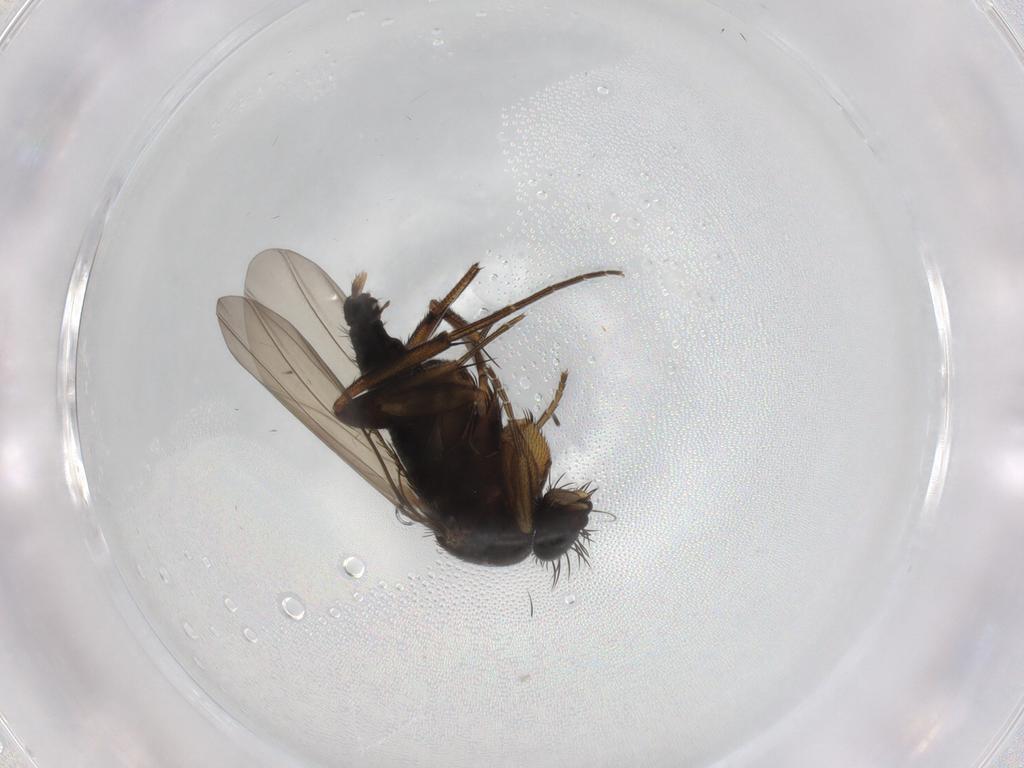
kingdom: Animalia
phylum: Arthropoda
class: Insecta
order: Diptera
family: Phoridae
